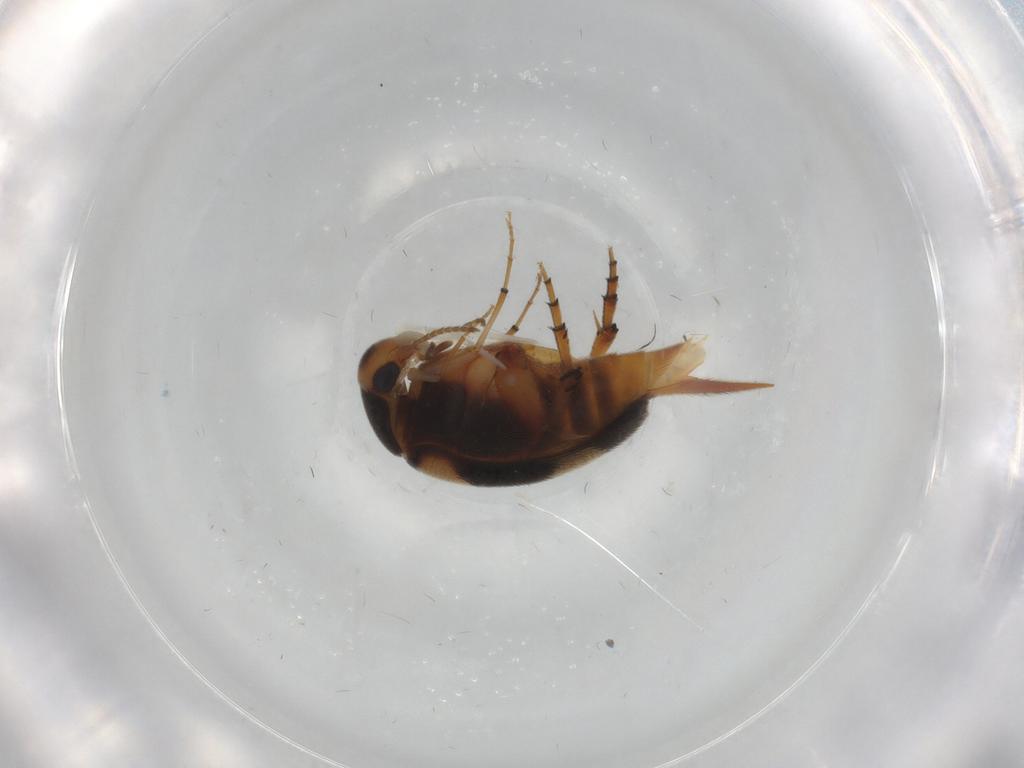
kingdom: Animalia
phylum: Arthropoda
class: Insecta
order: Coleoptera
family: Mordellidae
